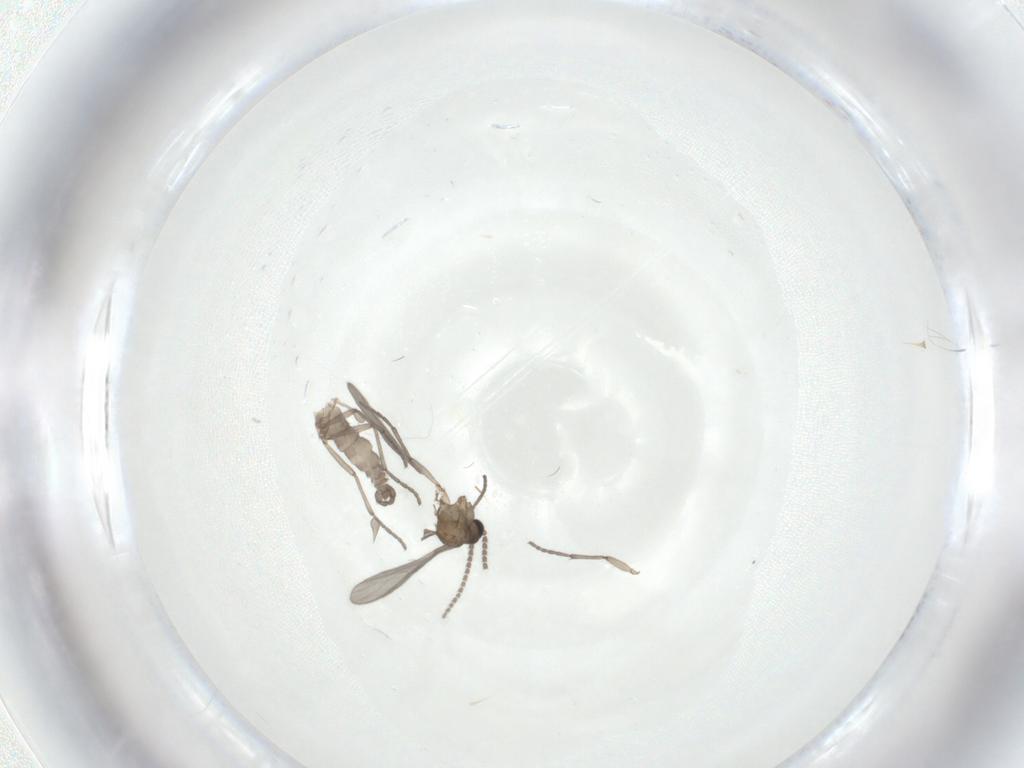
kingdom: Animalia
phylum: Arthropoda
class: Insecta
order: Diptera
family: Sciaridae
